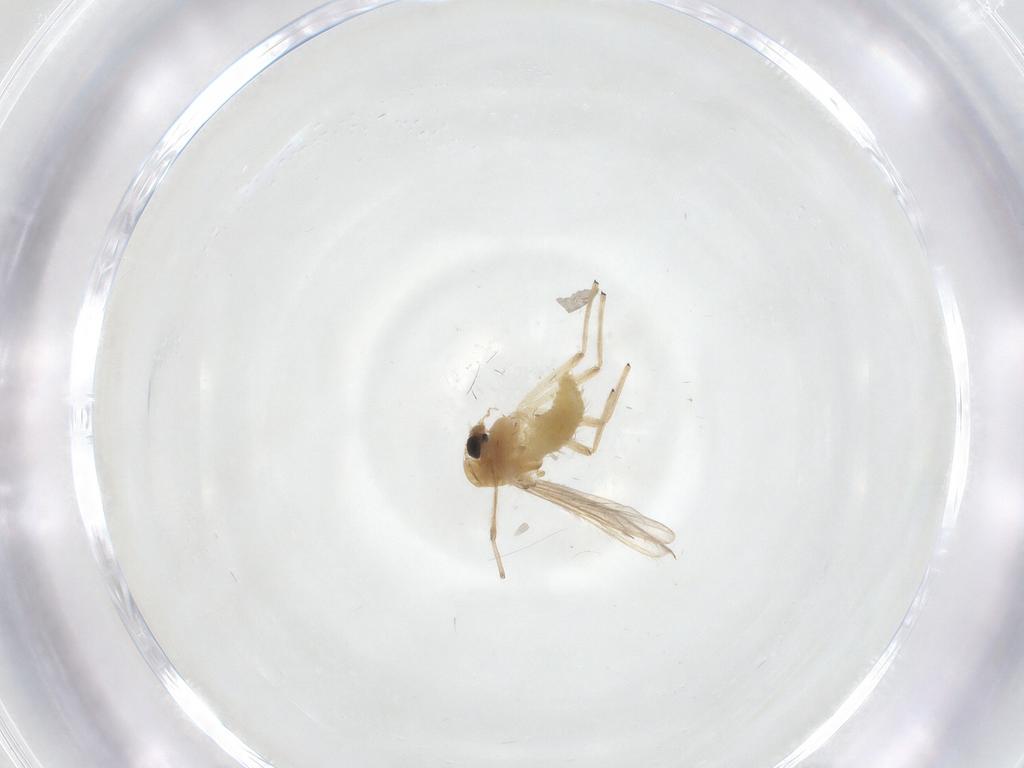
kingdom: Animalia
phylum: Arthropoda
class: Insecta
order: Diptera
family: Chironomidae
